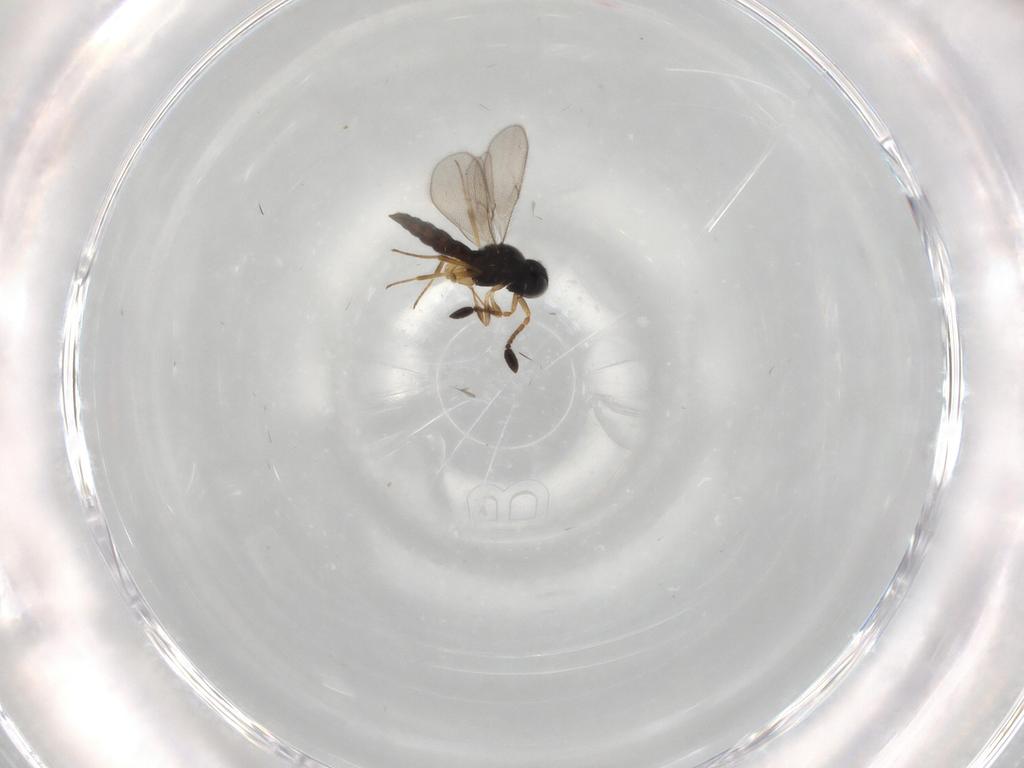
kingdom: Animalia
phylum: Arthropoda
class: Insecta
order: Hymenoptera
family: Scelionidae
